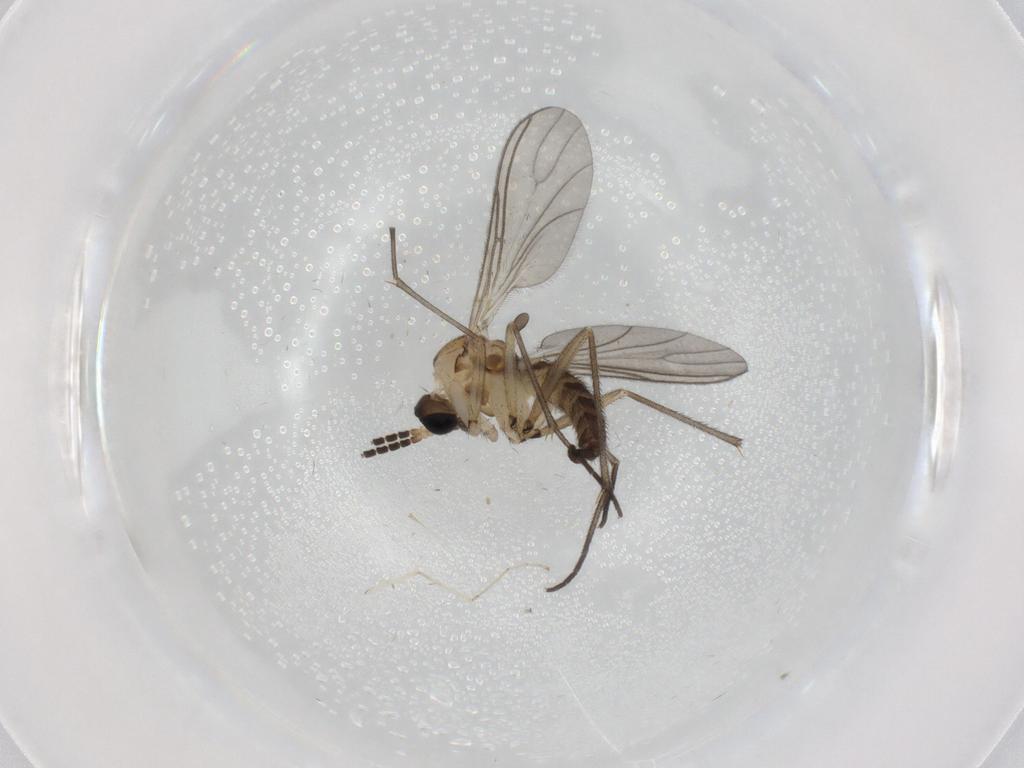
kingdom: Animalia
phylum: Arthropoda
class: Insecta
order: Diptera
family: Sciaridae
